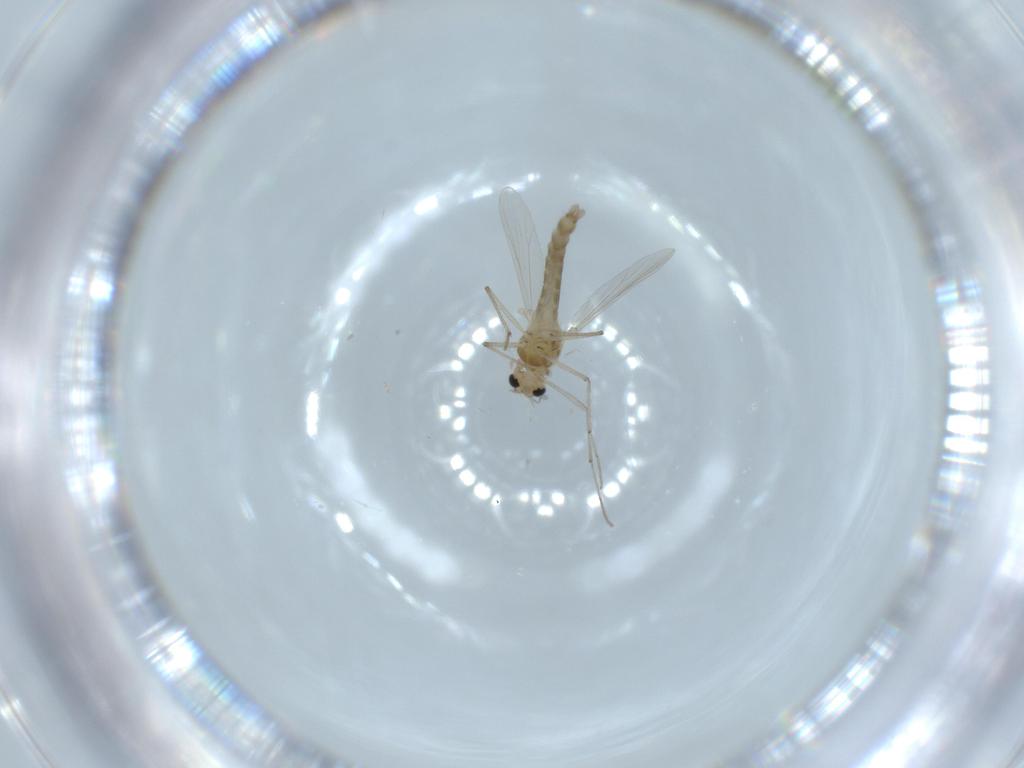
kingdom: Animalia
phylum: Arthropoda
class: Insecta
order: Diptera
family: Chironomidae
